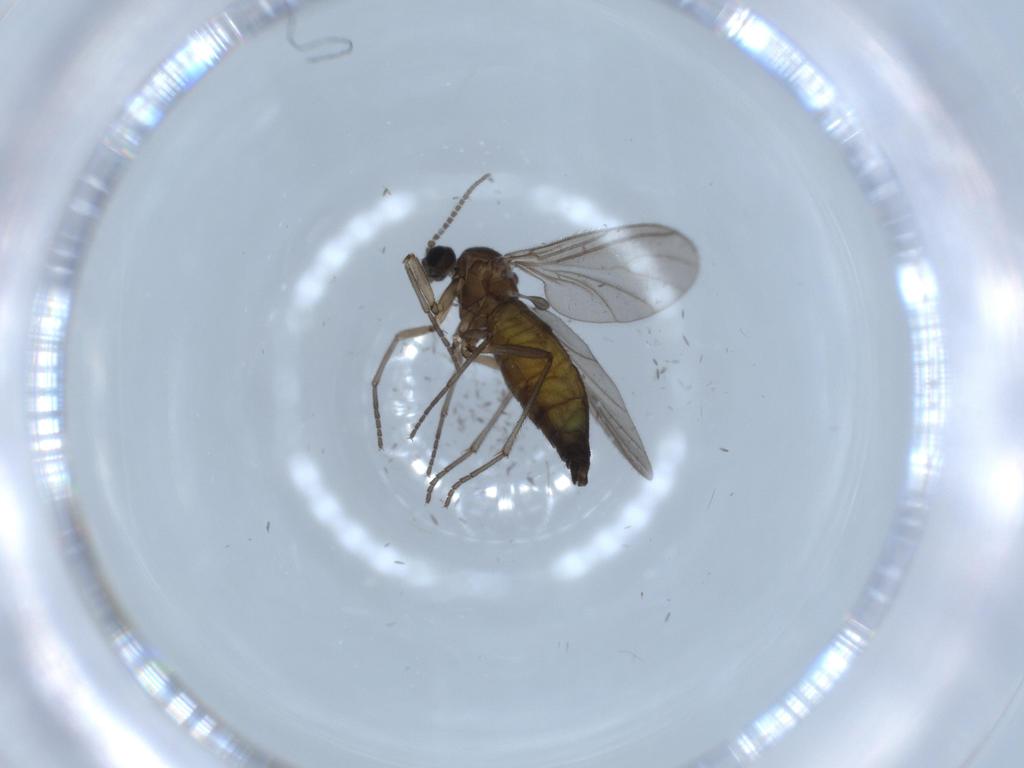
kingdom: Animalia
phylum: Arthropoda
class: Insecta
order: Diptera
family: Sciaridae
